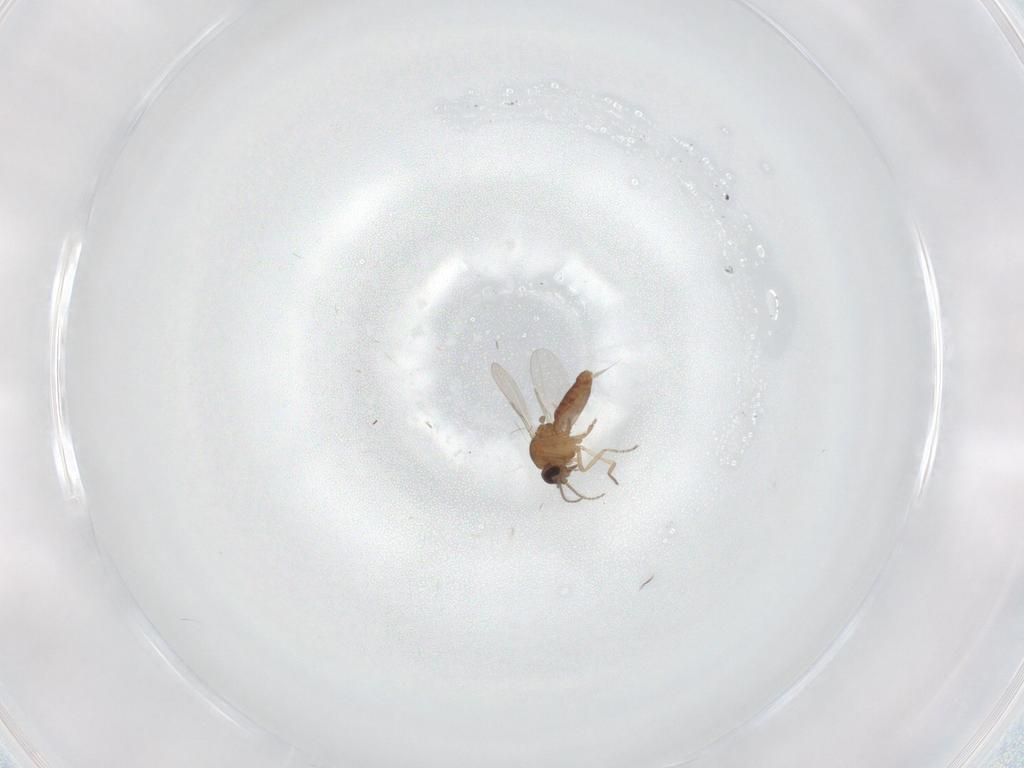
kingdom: Animalia
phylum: Arthropoda
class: Insecta
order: Diptera
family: Ceratopogonidae
